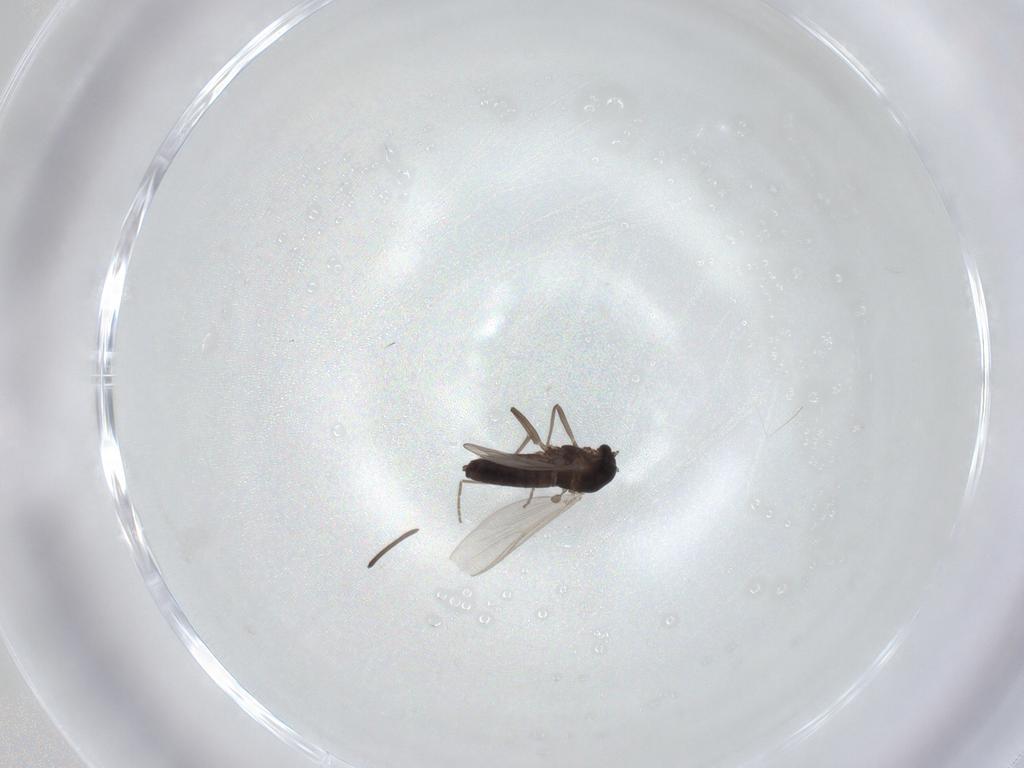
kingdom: Animalia
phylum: Arthropoda
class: Insecta
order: Diptera
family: Chironomidae
